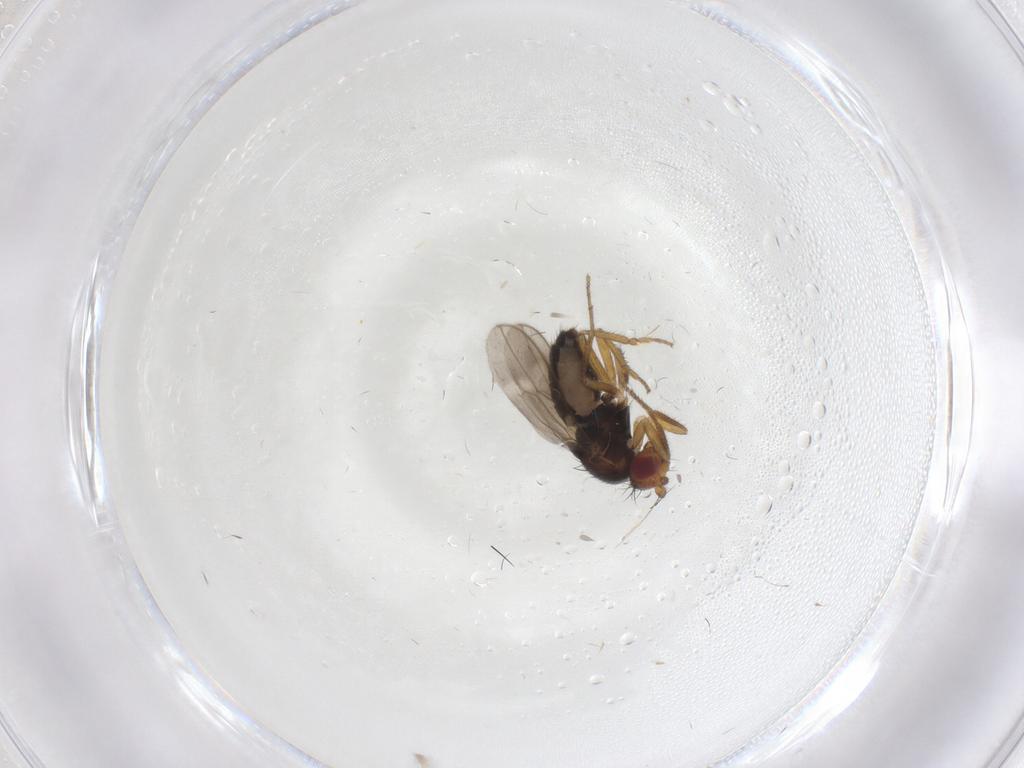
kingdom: Animalia
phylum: Arthropoda
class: Insecta
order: Diptera
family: Sphaeroceridae
